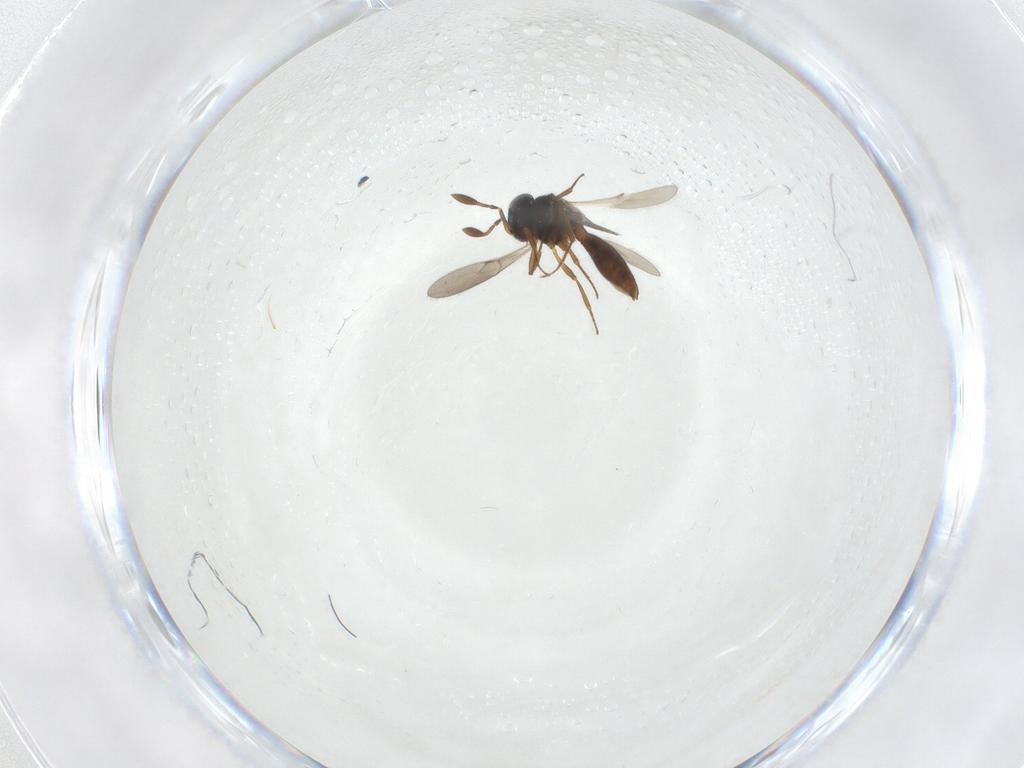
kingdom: Animalia
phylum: Arthropoda
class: Insecta
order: Hymenoptera
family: Scelionidae
